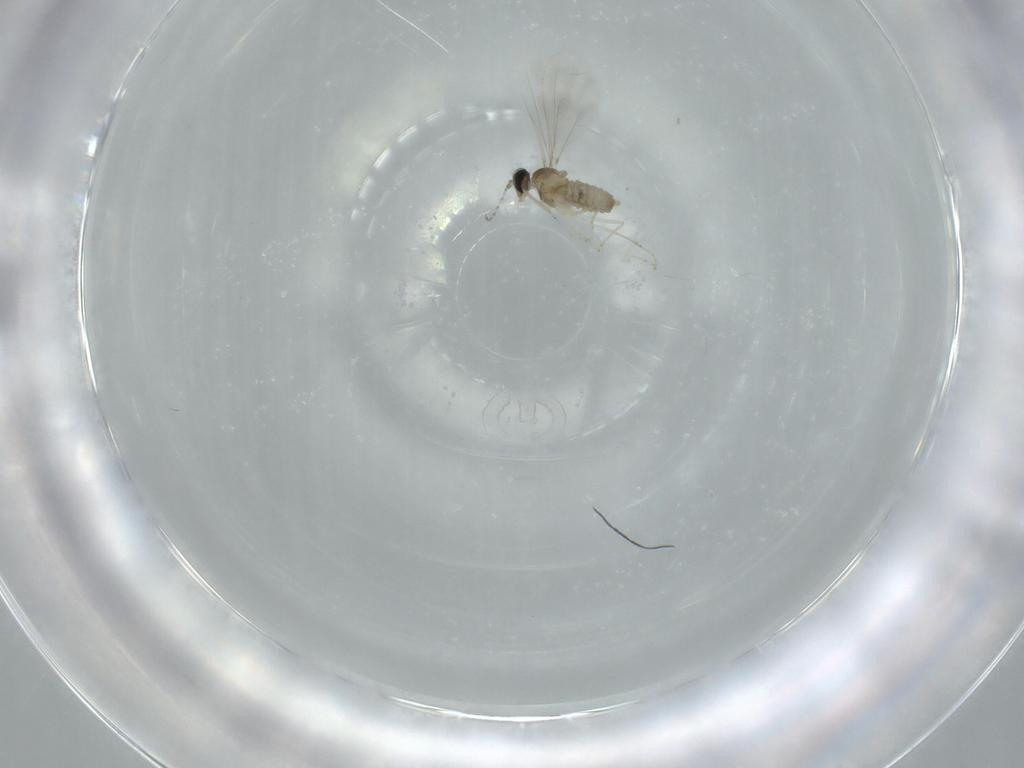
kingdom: Animalia
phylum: Arthropoda
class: Insecta
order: Diptera
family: Cecidomyiidae
